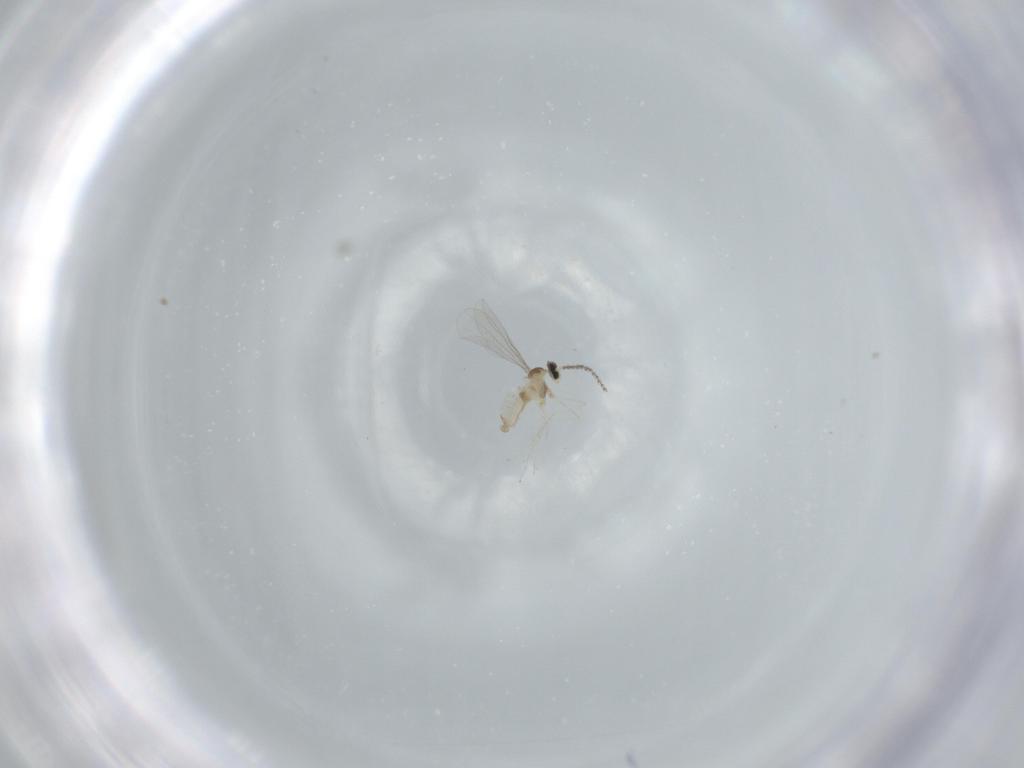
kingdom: Animalia
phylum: Arthropoda
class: Insecta
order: Diptera
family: Cecidomyiidae
